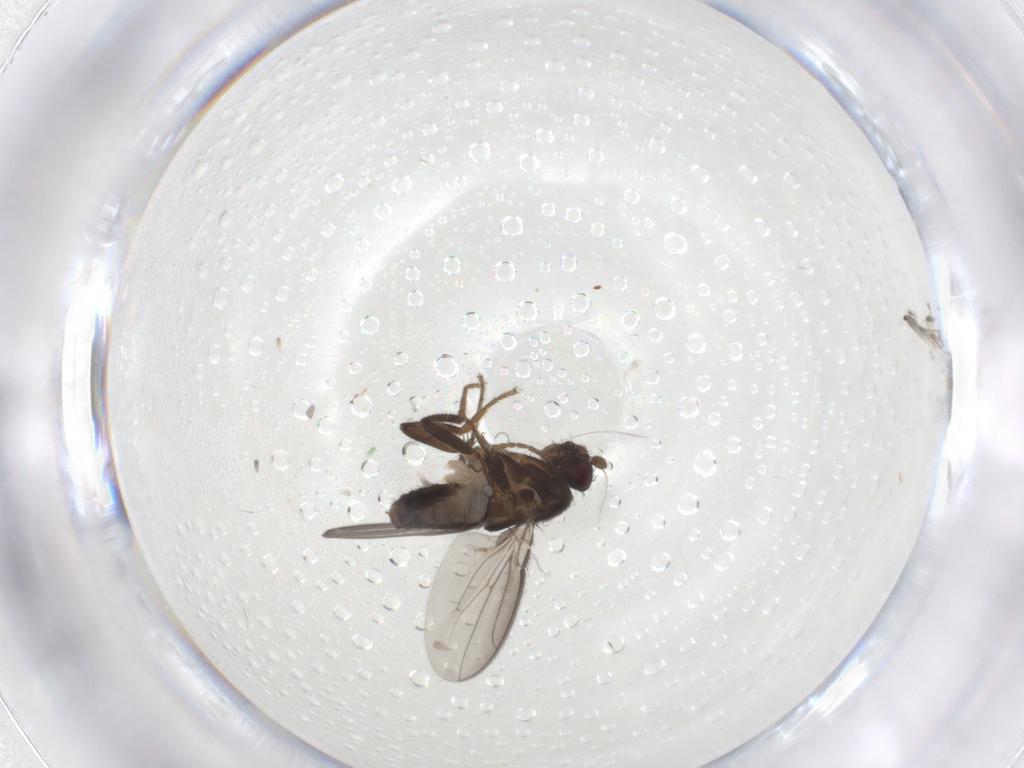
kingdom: Animalia
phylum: Arthropoda
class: Insecta
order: Diptera
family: Sphaeroceridae
